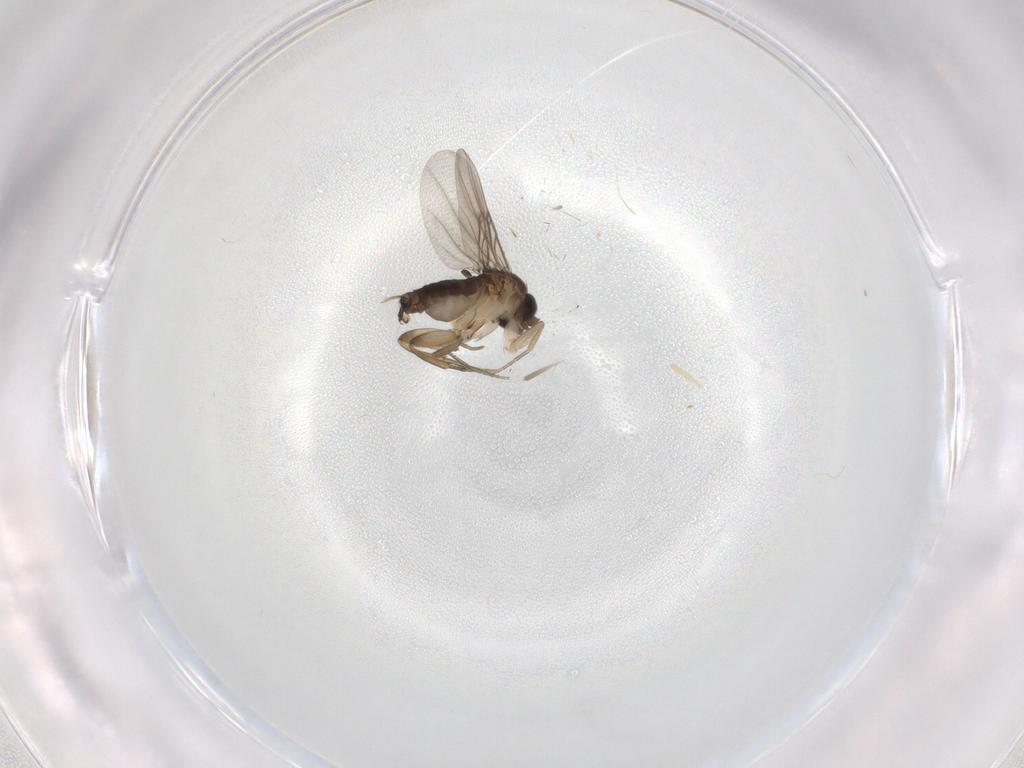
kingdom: Animalia
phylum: Arthropoda
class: Insecta
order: Diptera
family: Phoridae
